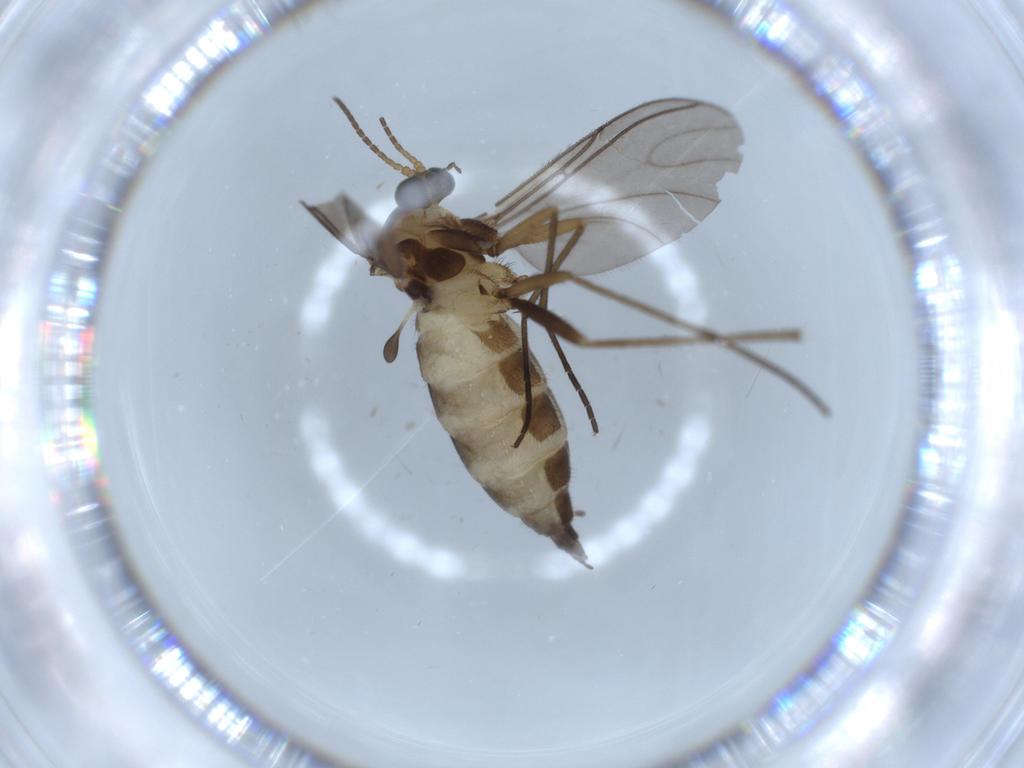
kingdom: Animalia
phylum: Arthropoda
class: Insecta
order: Diptera
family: Sciaridae
